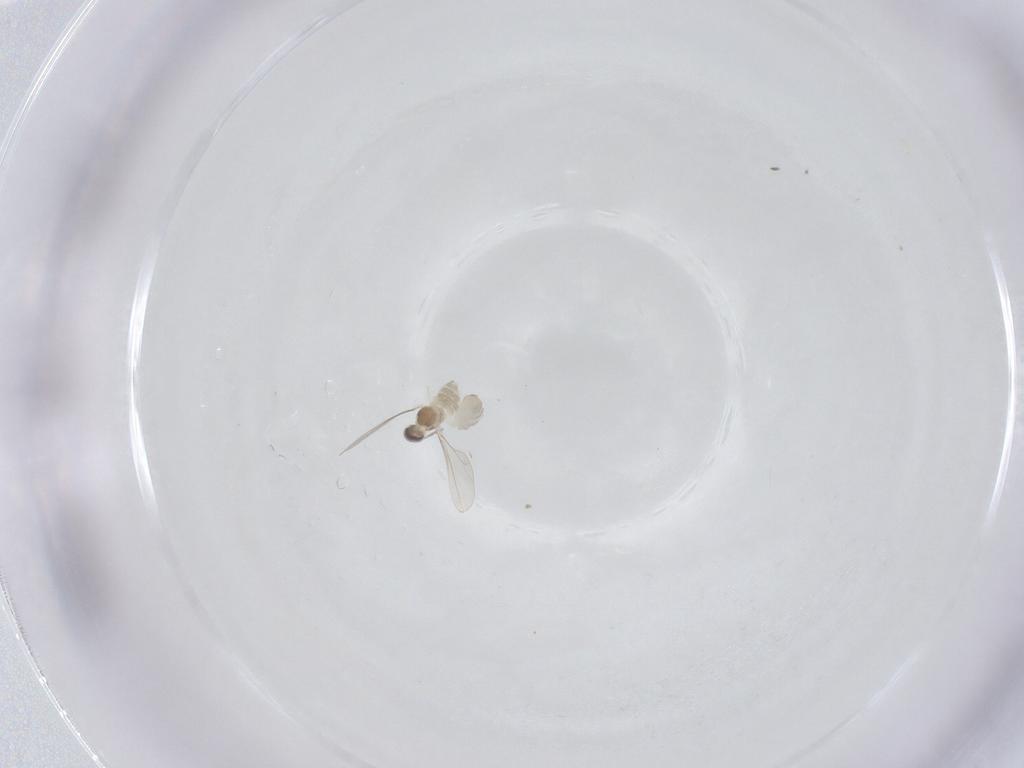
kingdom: Animalia
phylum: Arthropoda
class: Insecta
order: Diptera
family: Cecidomyiidae
